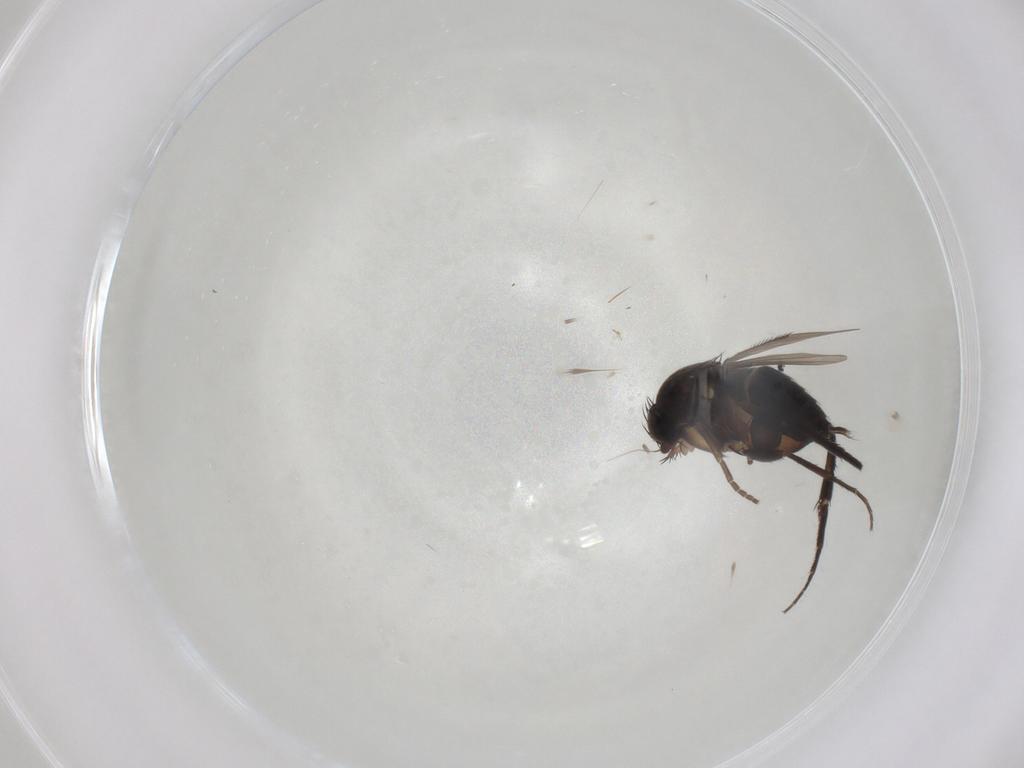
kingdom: Animalia
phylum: Arthropoda
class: Insecta
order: Diptera
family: Phoridae
